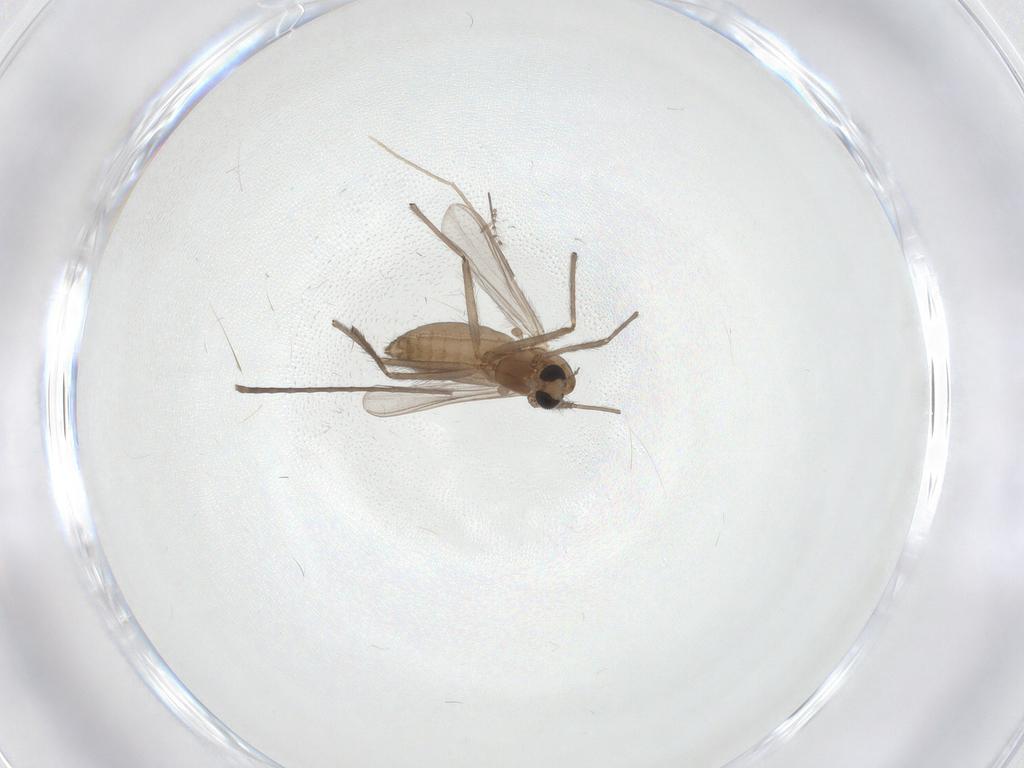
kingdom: Animalia
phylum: Arthropoda
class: Insecta
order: Diptera
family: Chironomidae
